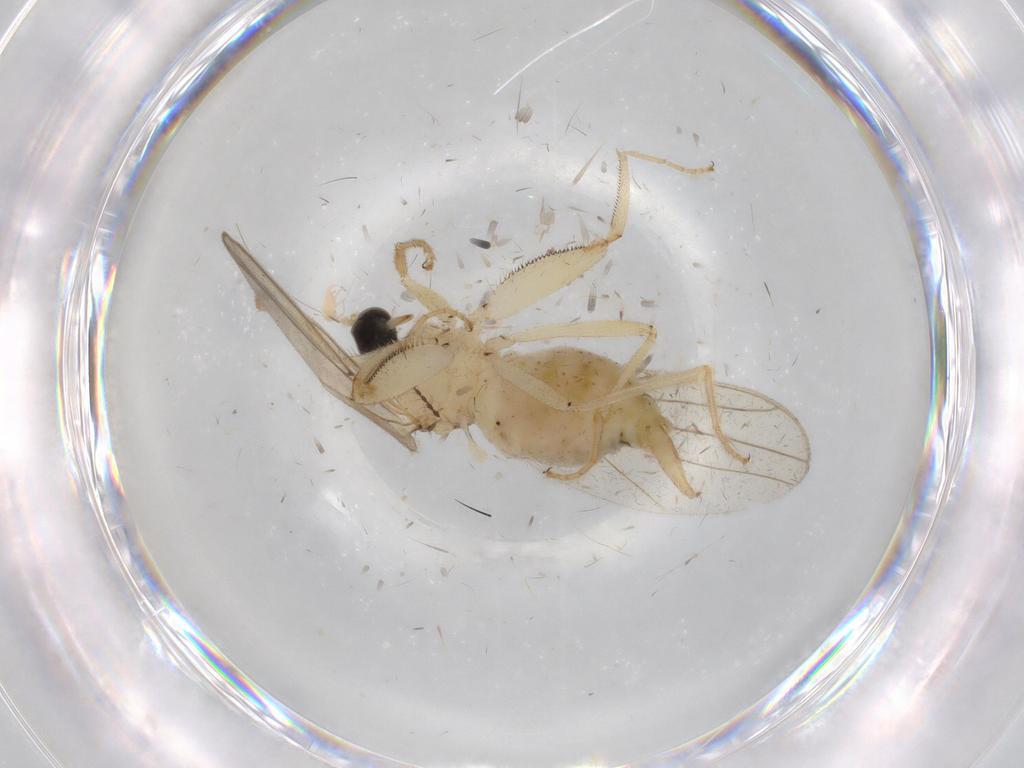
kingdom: Animalia
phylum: Arthropoda
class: Insecta
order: Diptera
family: Hybotidae
